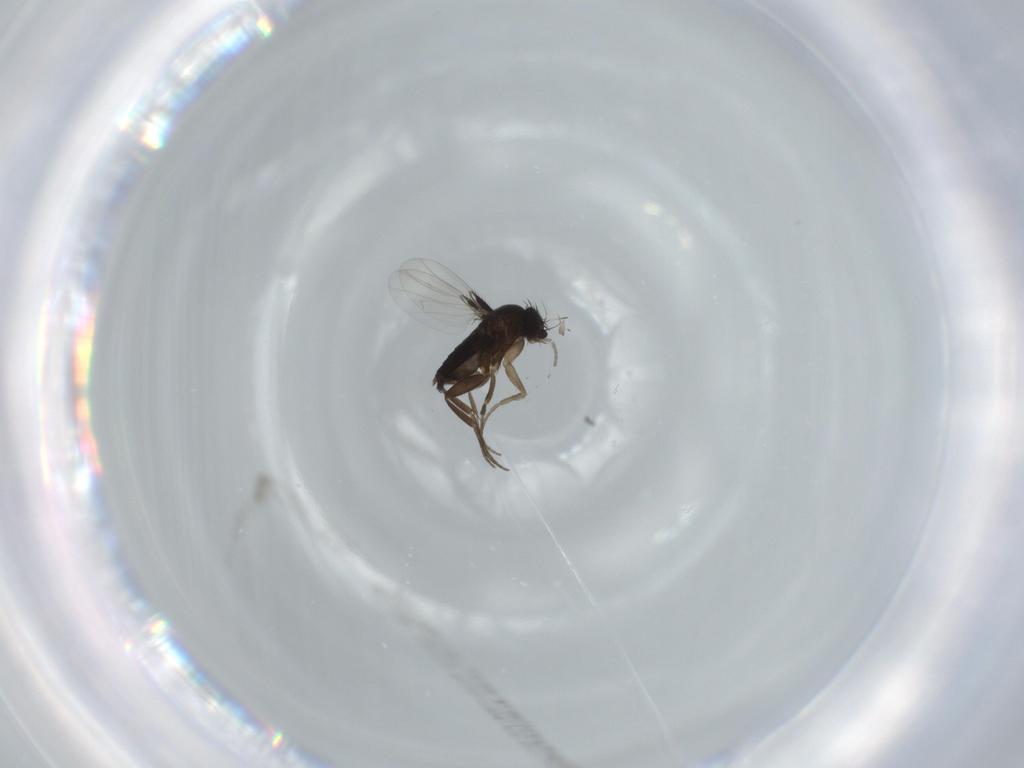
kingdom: Animalia
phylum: Arthropoda
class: Insecta
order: Diptera
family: Phoridae
